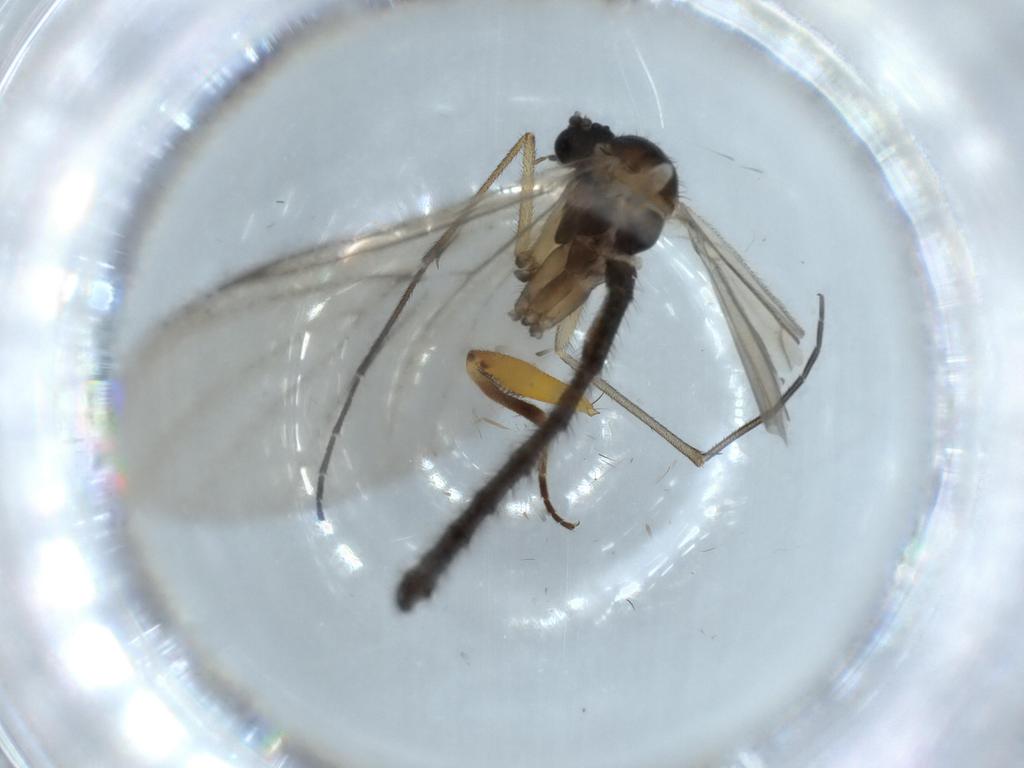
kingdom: Animalia
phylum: Arthropoda
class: Insecta
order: Diptera
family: Keroplatidae
